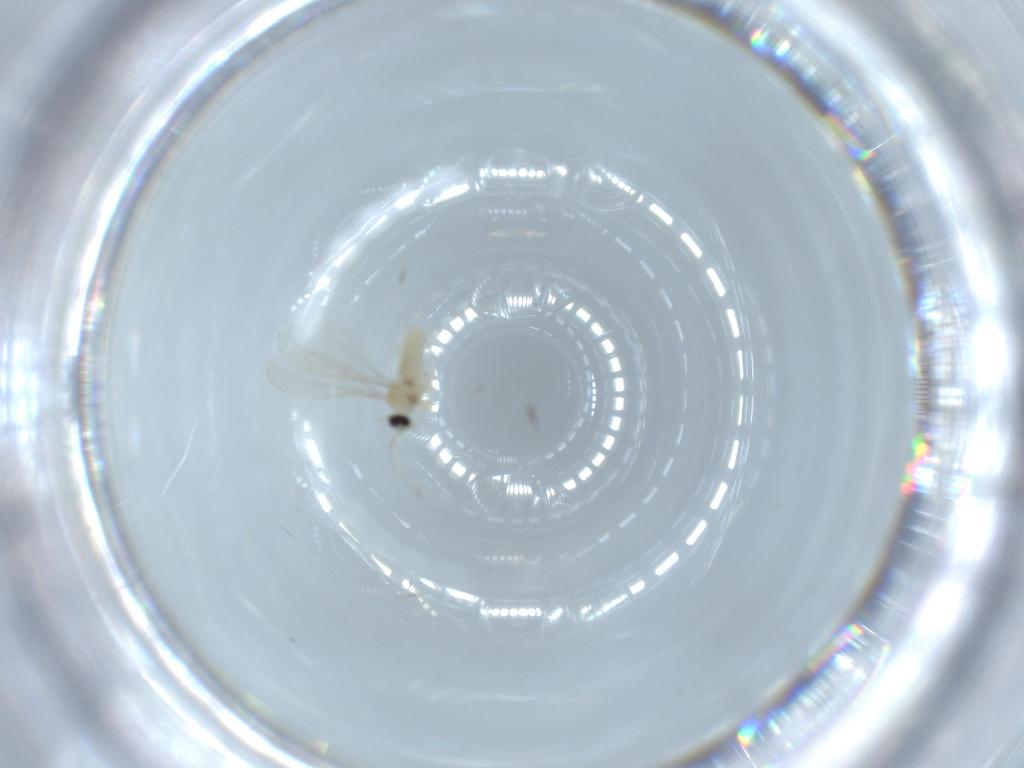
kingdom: Animalia
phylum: Arthropoda
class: Insecta
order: Diptera
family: Cecidomyiidae
